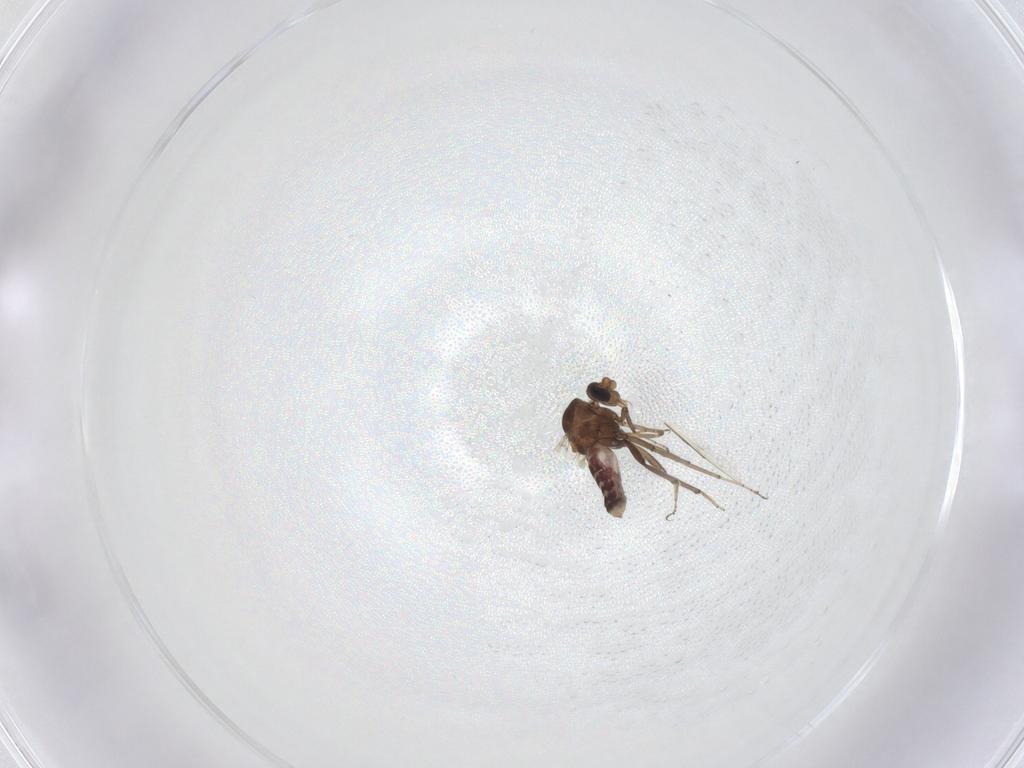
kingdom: Animalia
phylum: Arthropoda
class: Insecta
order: Diptera
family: Ceratopogonidae
